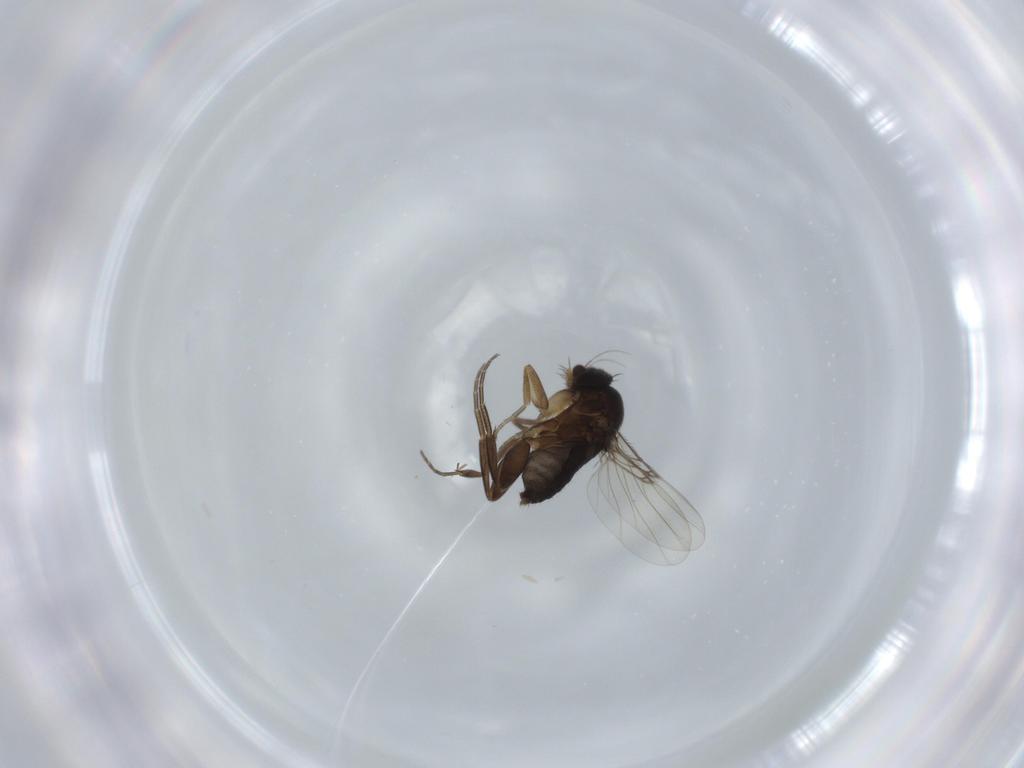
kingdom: Animalia
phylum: Arthropoda
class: Insecta
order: Diptera
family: Phoridae
